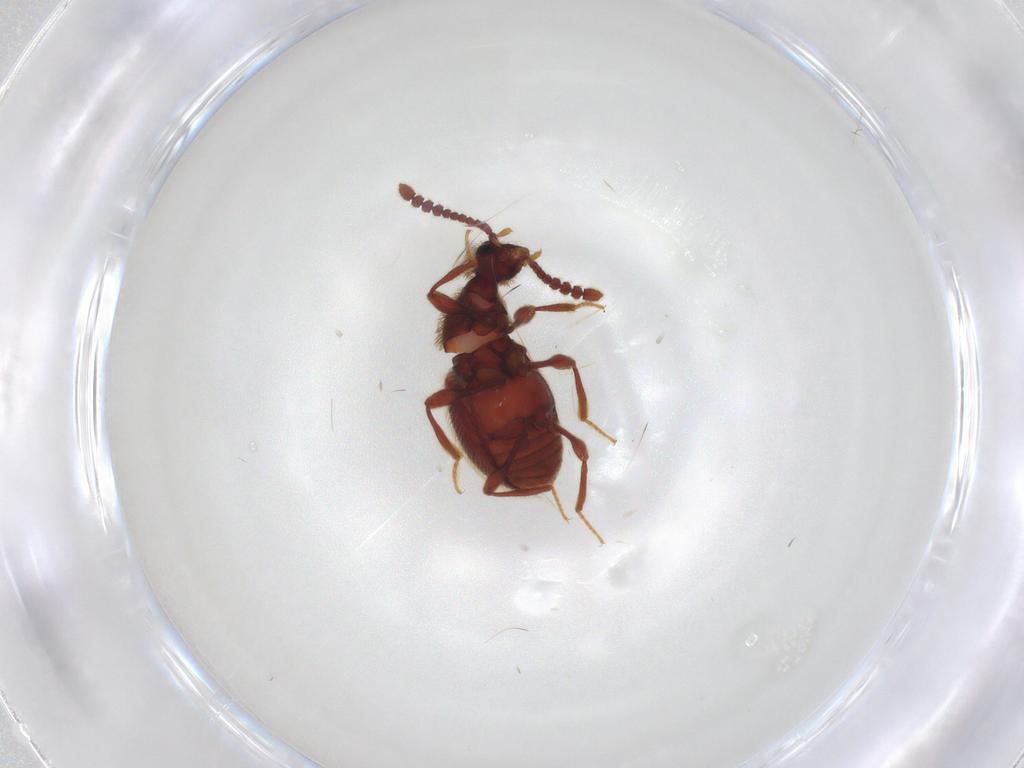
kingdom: Animalia
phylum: Arthropoda
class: Insecta
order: Coleoptera
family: Staphylinidae
